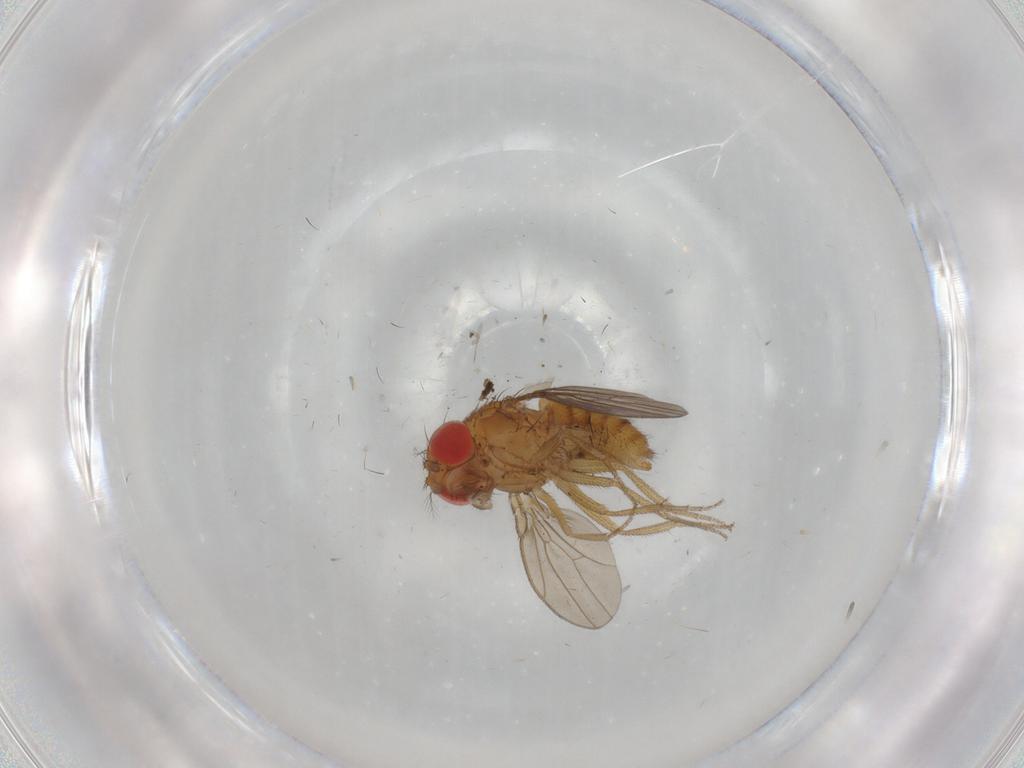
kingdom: Animalia
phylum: Arthropoda
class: Insecta
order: Diptera
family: Drosophilidae
